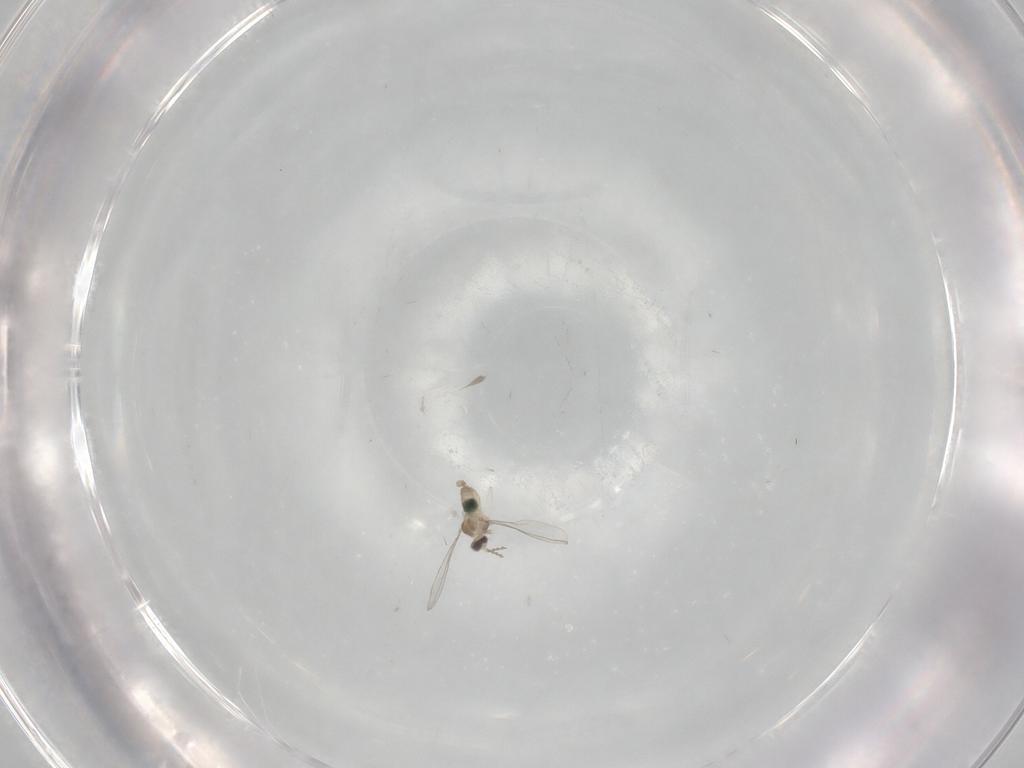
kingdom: Animalia
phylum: Arthropoda
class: Insecta
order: Diptera
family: Cecidomyiidae
